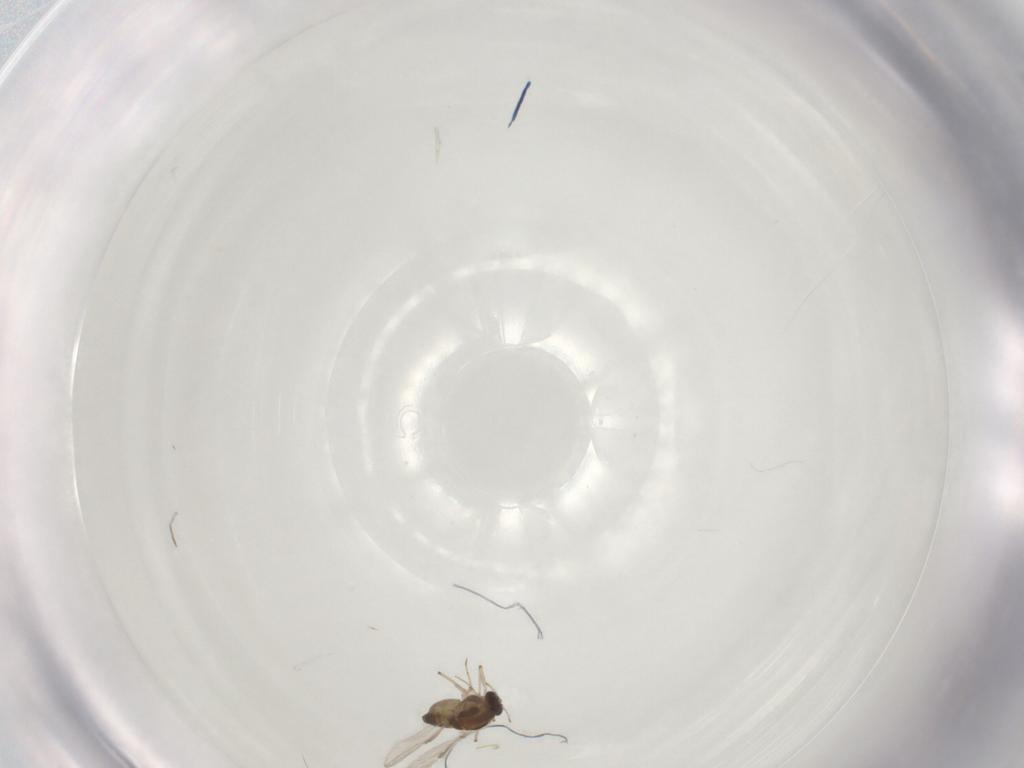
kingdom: Animalia
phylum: Arthropoda
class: Insecta
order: Diptera
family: Chironomidae
